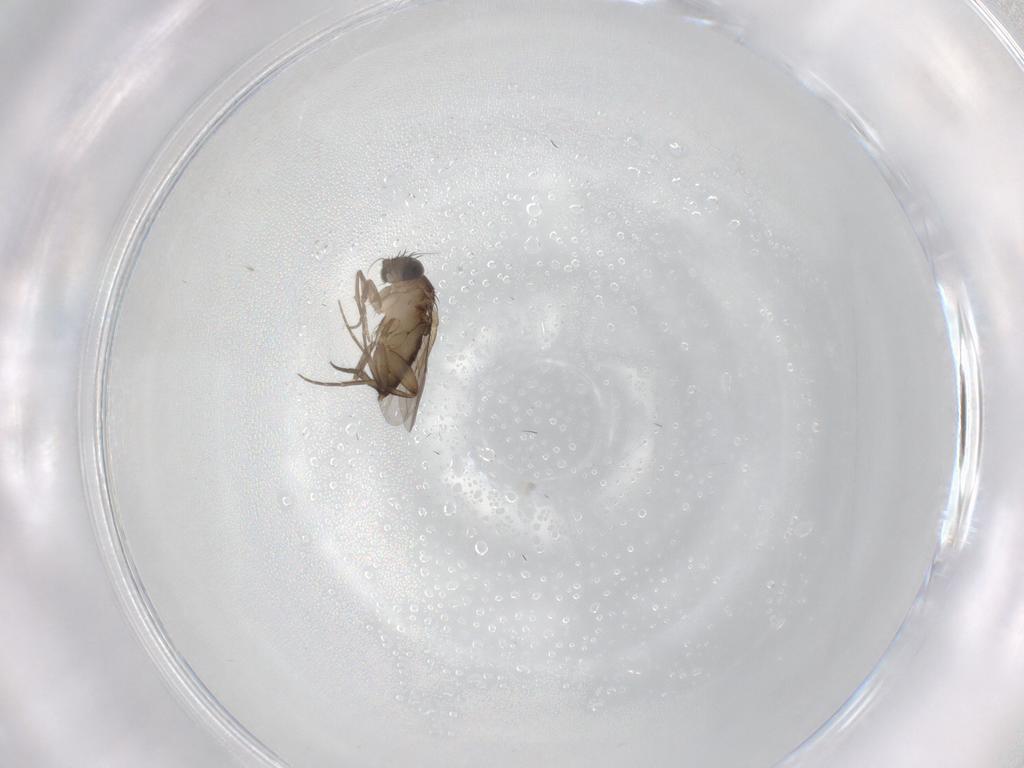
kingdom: Animalia
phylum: Arthropoda
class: Insecta
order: Diptera
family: Phoridae
